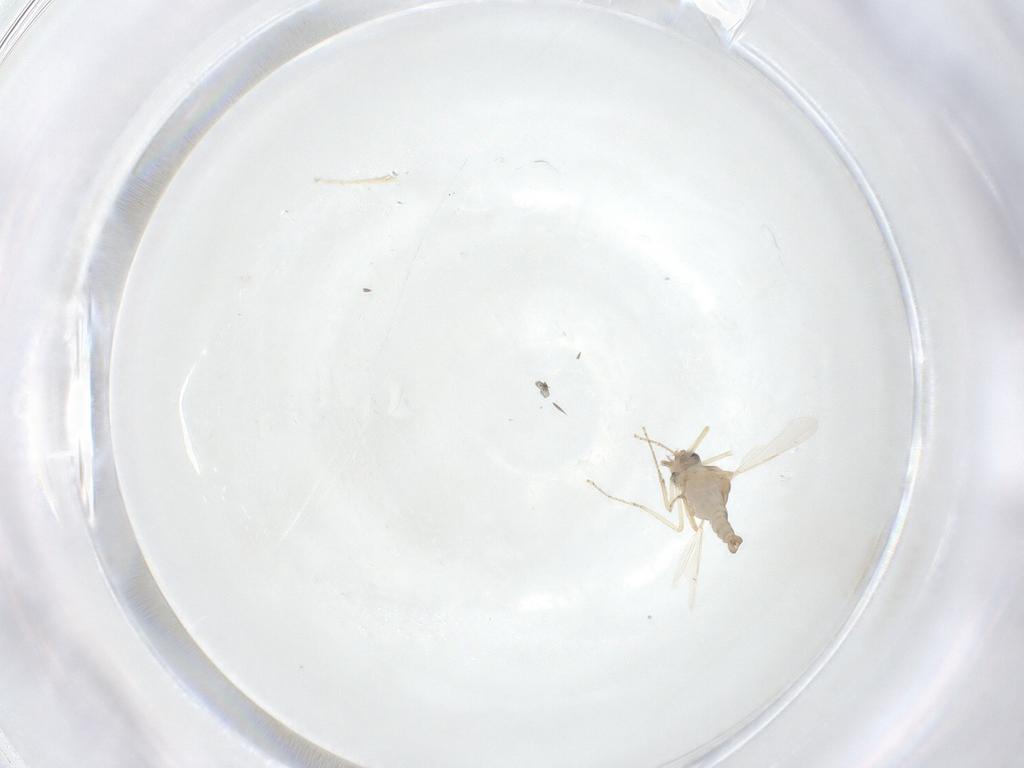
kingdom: Animalia
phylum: Arthropoda
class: Insecta
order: Diptera
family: Ceratopogonidae
